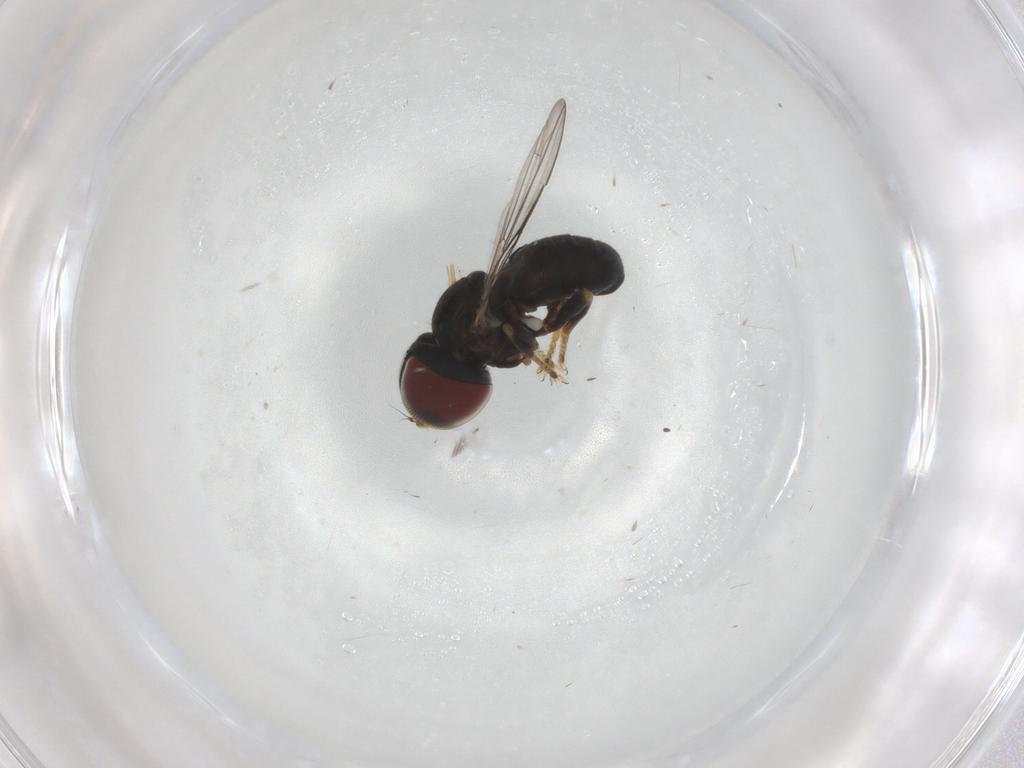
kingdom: Animalia
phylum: Arthropoda
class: Insecta
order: Diptera
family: Pipunculidae
